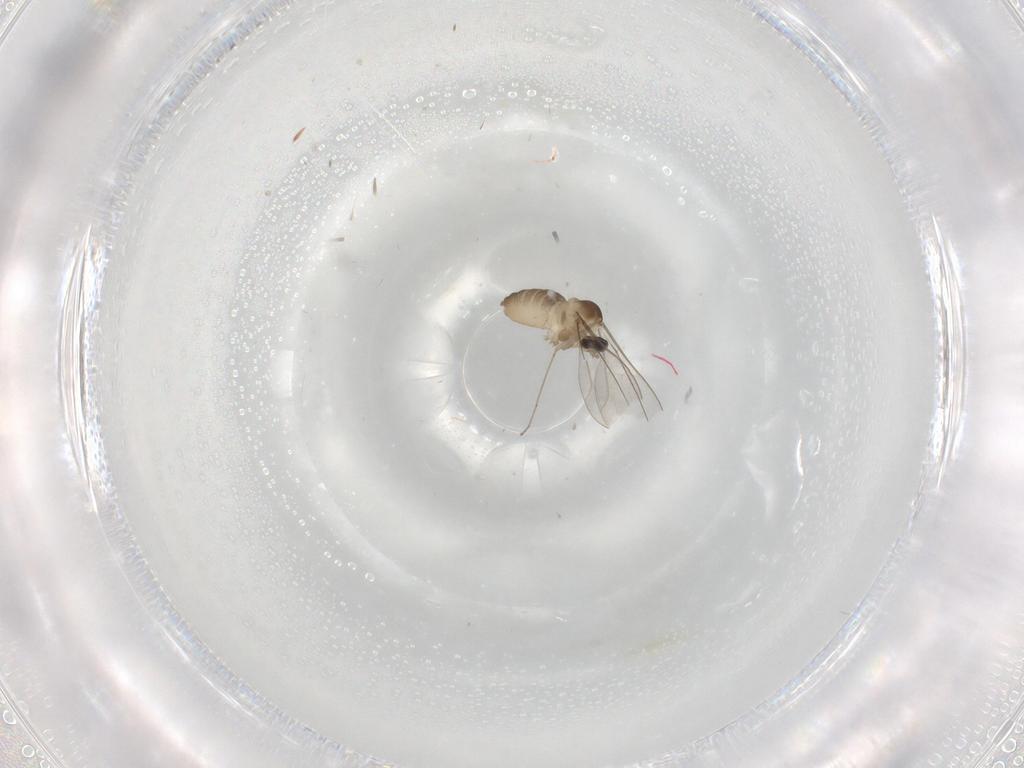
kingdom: Animalia
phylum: Arthropoda
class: Insecta
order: Diptera
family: Cecidomyiidae
